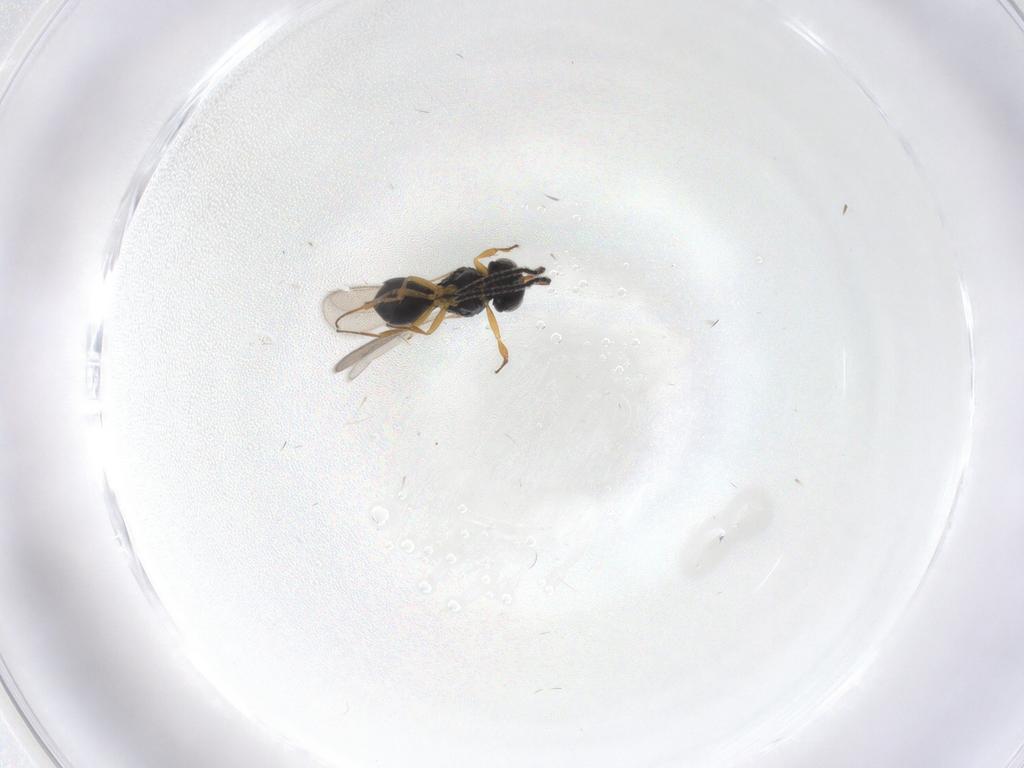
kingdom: Animalia
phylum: Arthropoda
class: Insecta
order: Hymenoptera
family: Scelionidae
